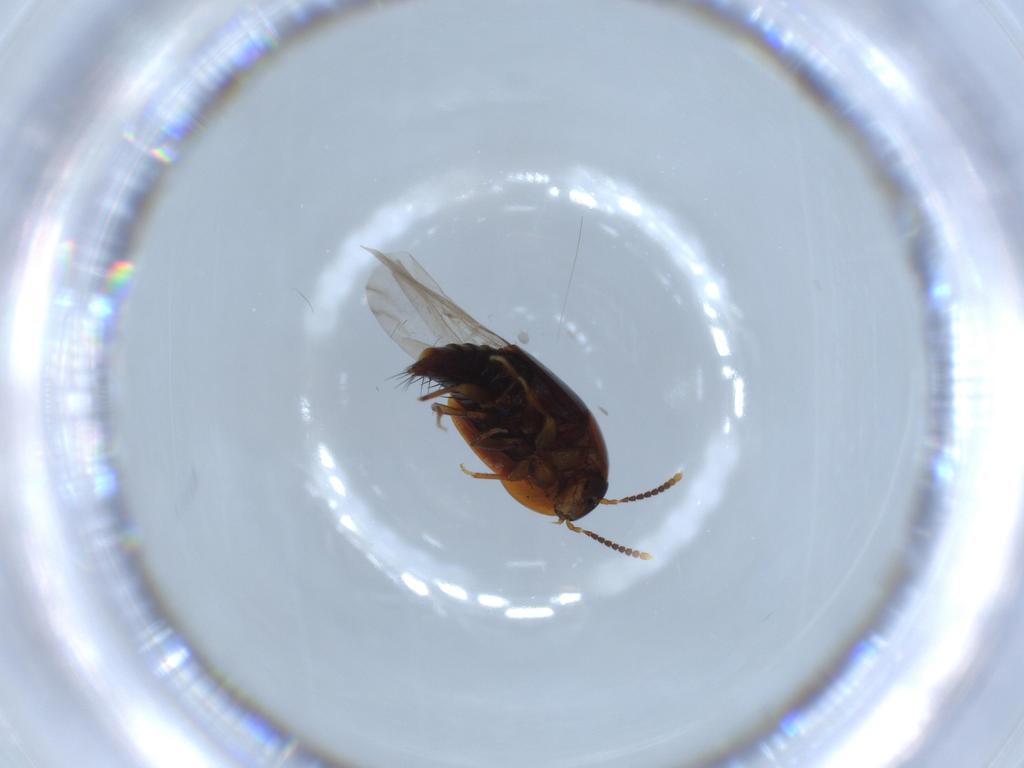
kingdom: Animalia
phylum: Arthropoda
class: Insecta
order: Coleoptera
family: Staphylinidae
